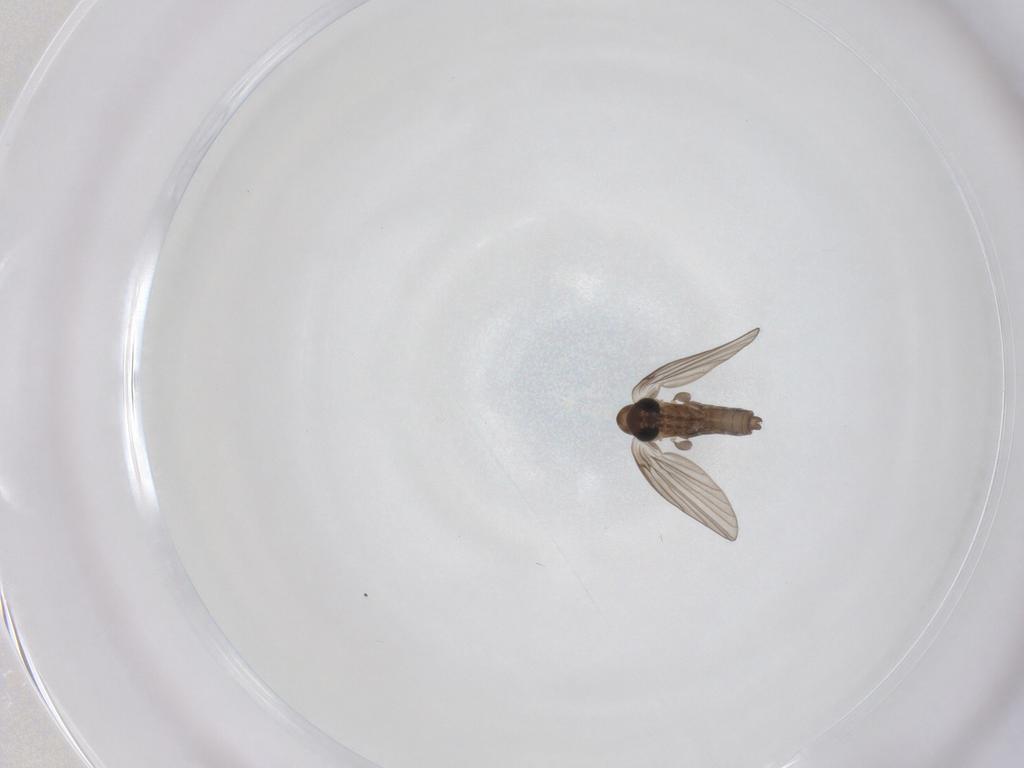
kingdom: Animalia
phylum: Arthropoda
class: Insecta
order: Diptera
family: Psychodidae
